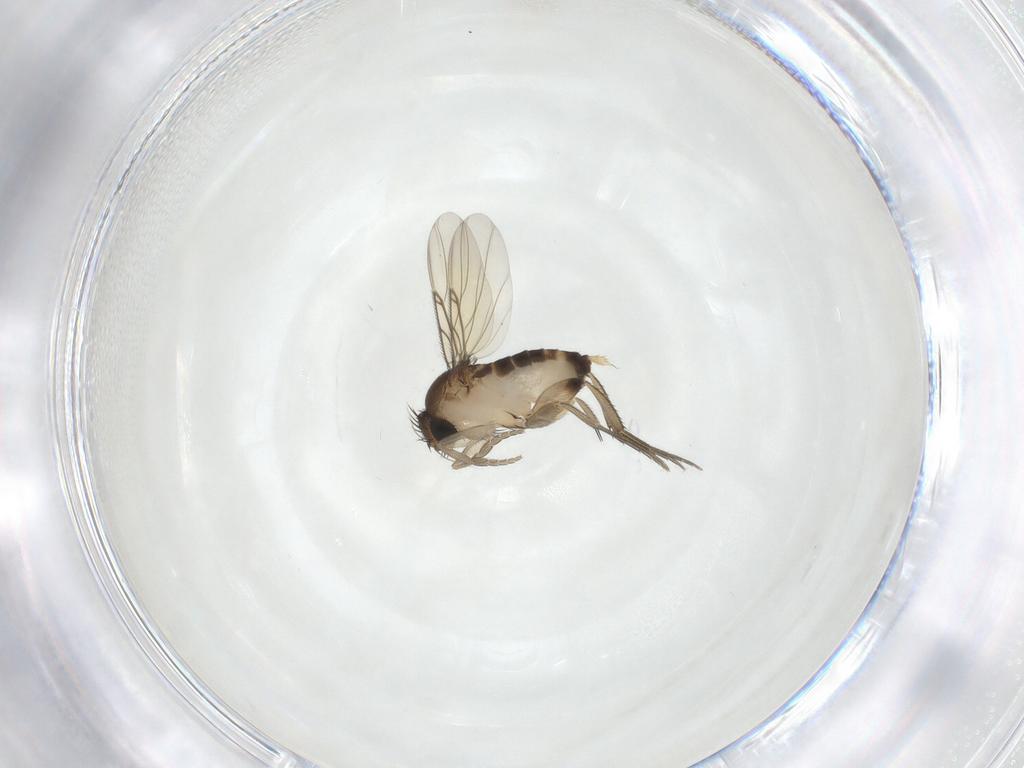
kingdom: Animalia
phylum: Arthropoda
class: Insecta
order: Diptera
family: Phoridae
